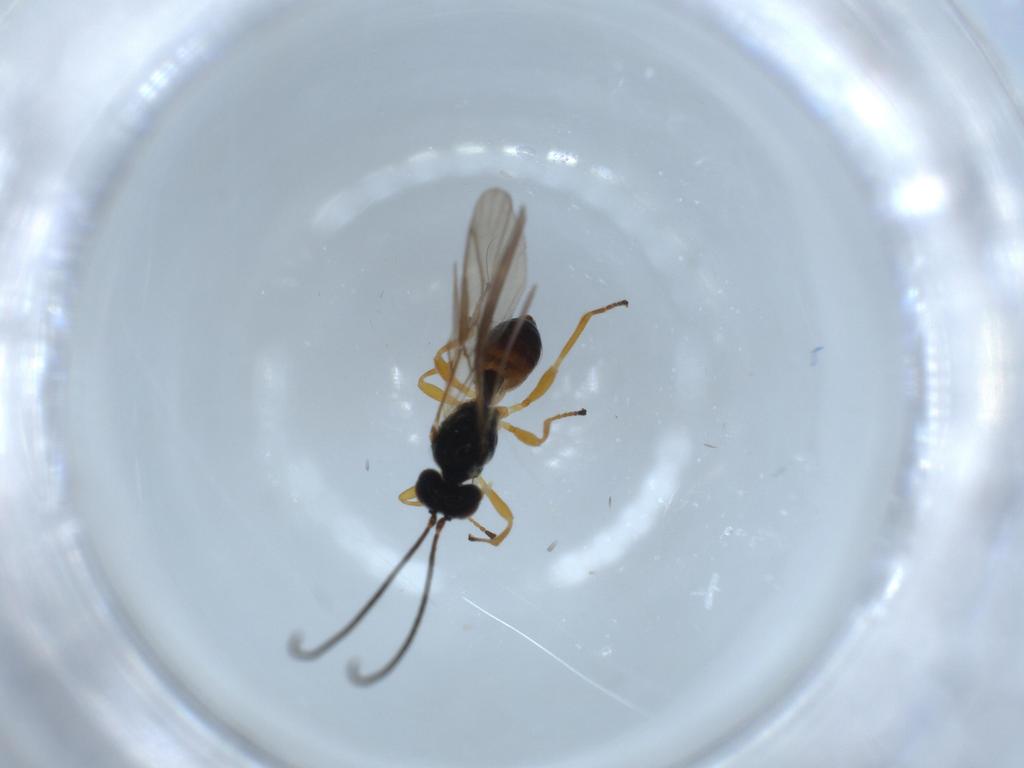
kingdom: Animalia
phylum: Arthropoda
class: Insecta
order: Hymenoptera
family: Braconidae
